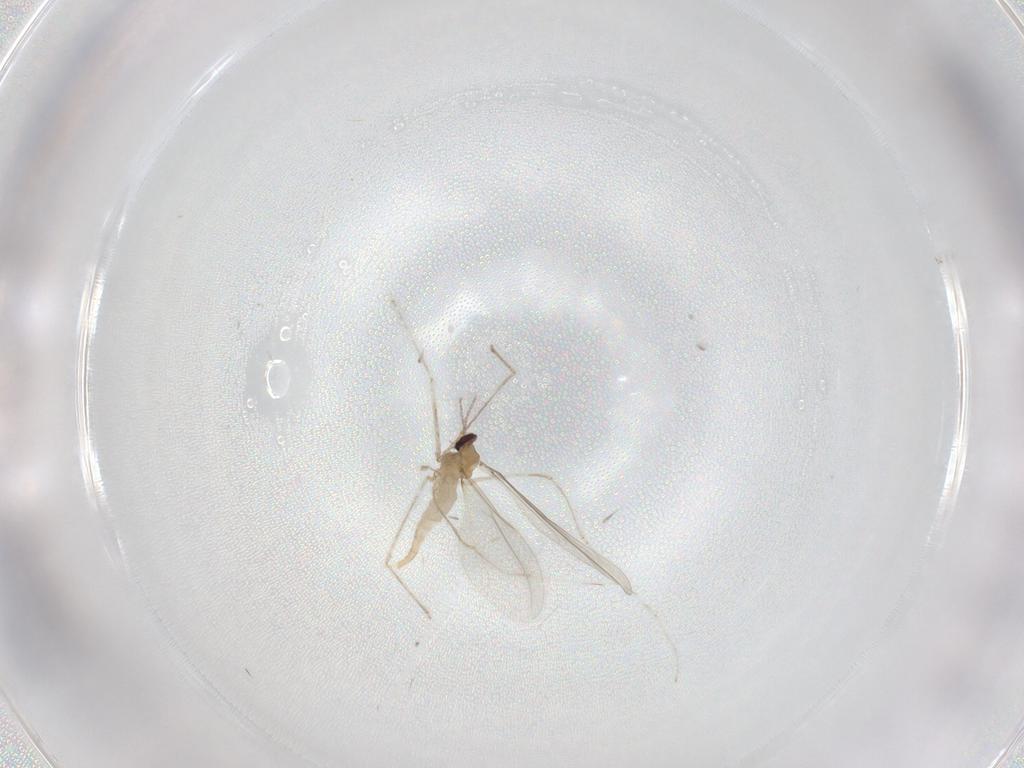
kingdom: Animalia
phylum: Arthropoda
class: Insecta
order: Diptera
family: Cecidomyiidae
